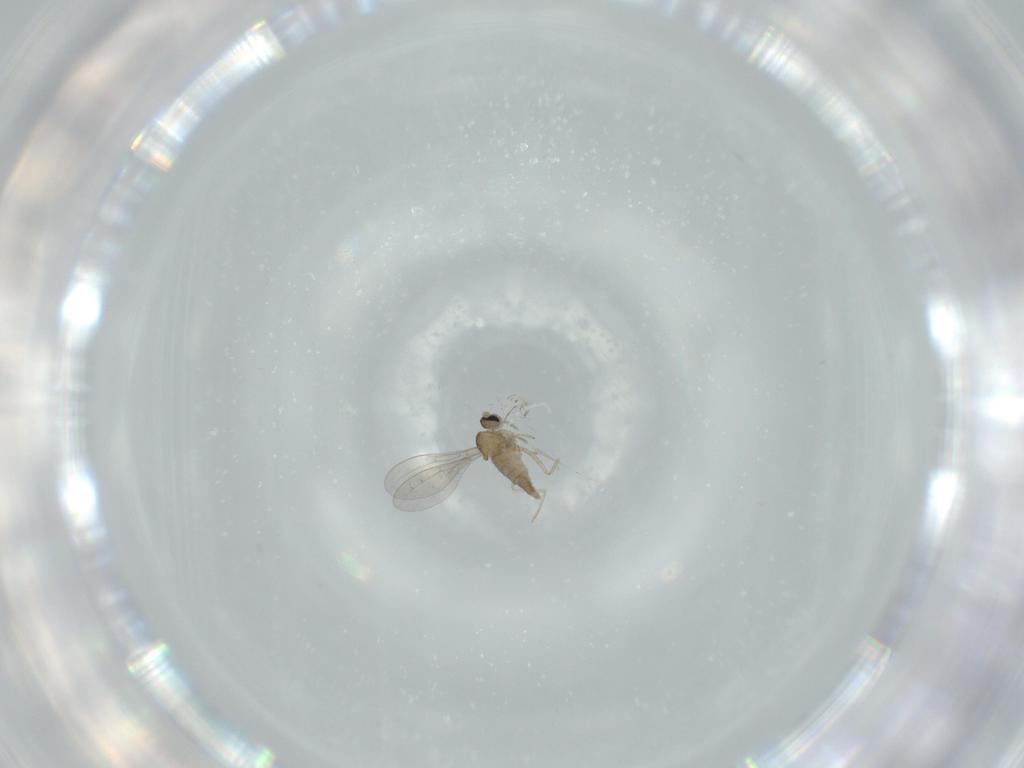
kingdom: Animalia
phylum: Arthropoda
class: Insecta
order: Diptera
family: Cecidomyiidae
